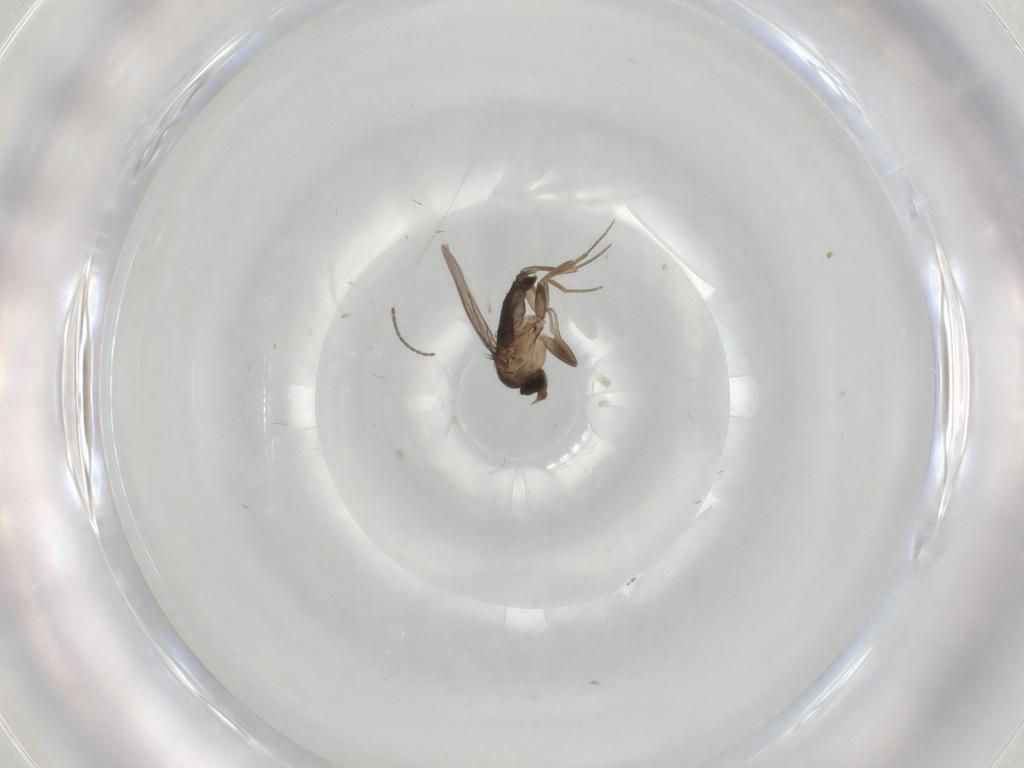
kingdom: Animalia
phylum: Arthropoda
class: Insecta
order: Diptera
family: Phoridae
